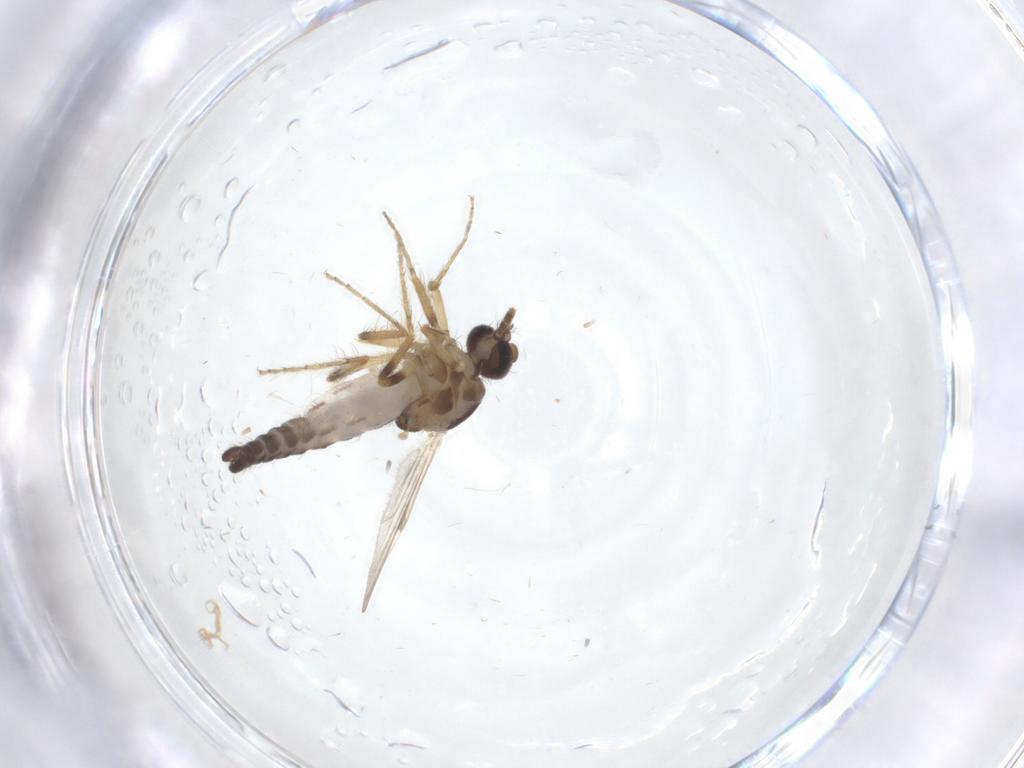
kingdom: Animalia
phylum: Arthropoda
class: Insecta
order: Diptera
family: Ceratopogonidae
